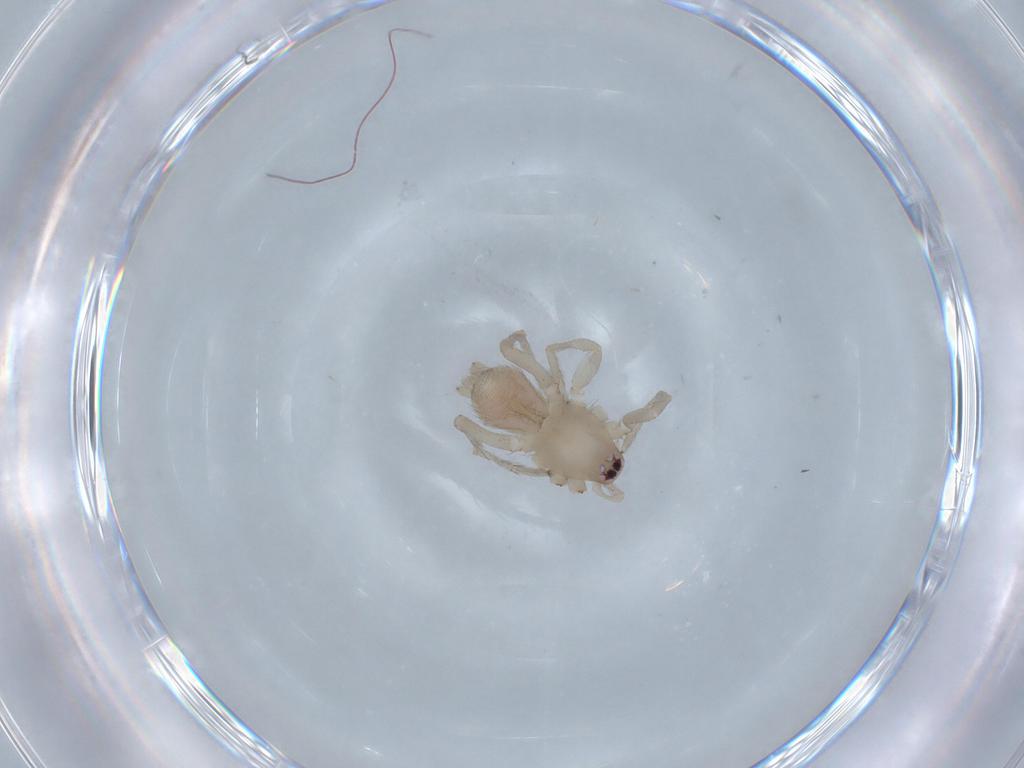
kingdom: Animalia
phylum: Arthropoda
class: Arachnida
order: Araneae
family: Gnaphosidae
